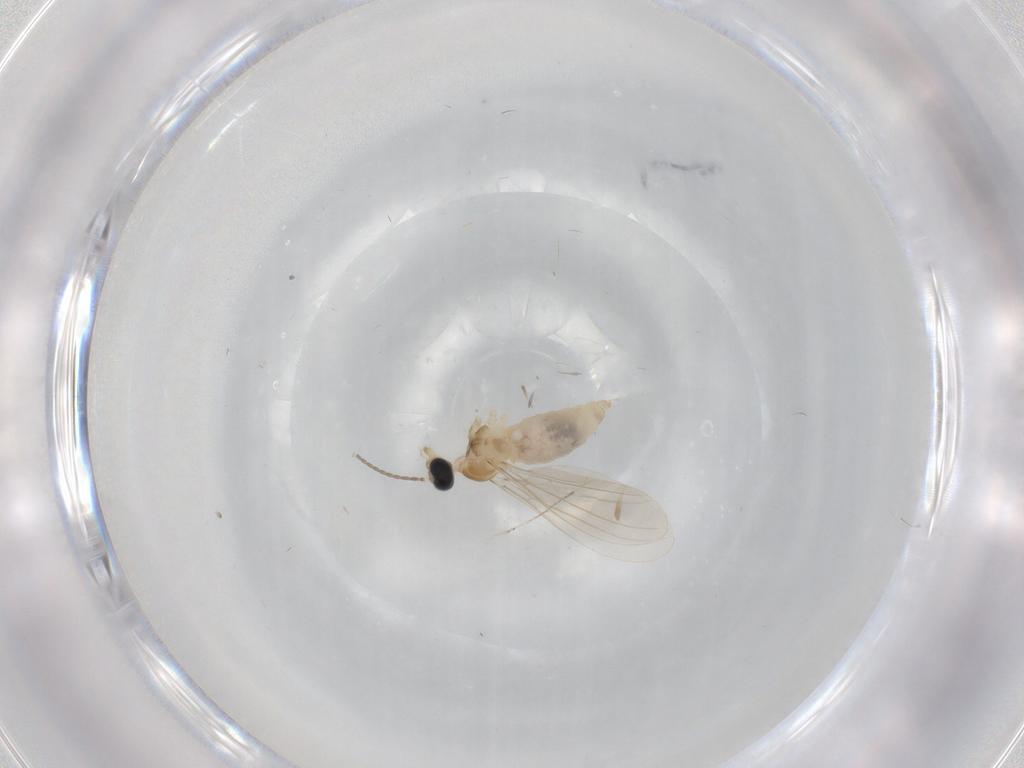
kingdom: Animalia
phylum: Arthropoda
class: Insecta
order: Diptera
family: Cecidomyiidae
